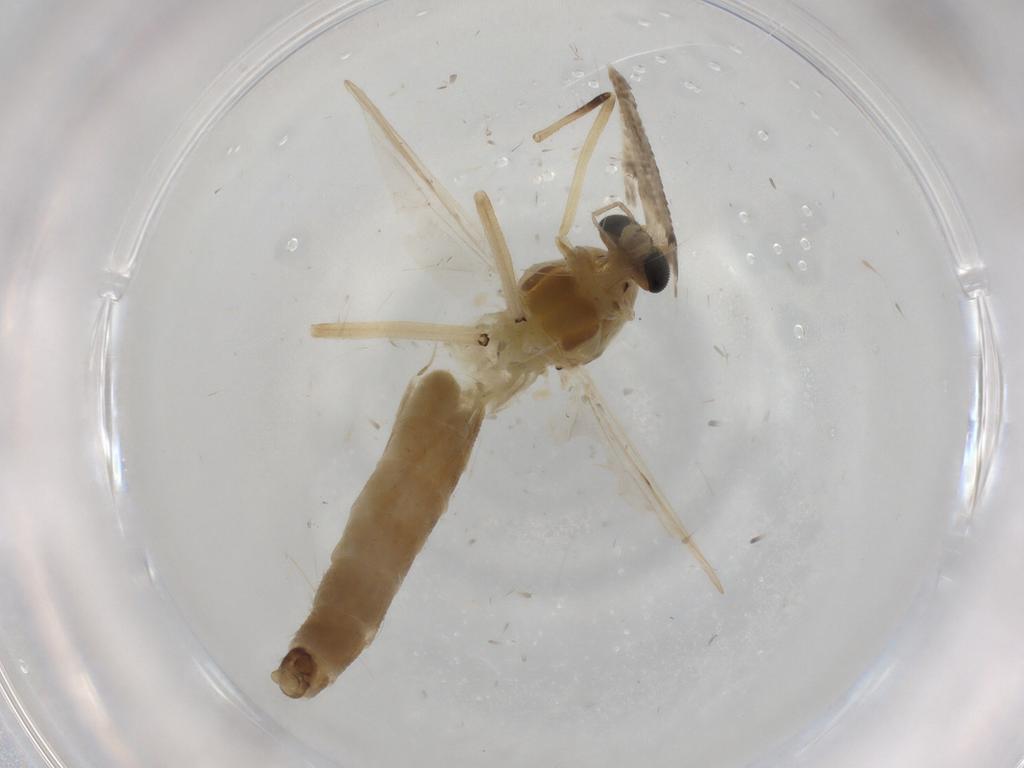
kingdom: Animalia
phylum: Arthropoda
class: Insecta
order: Diptera
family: Chironomidae
